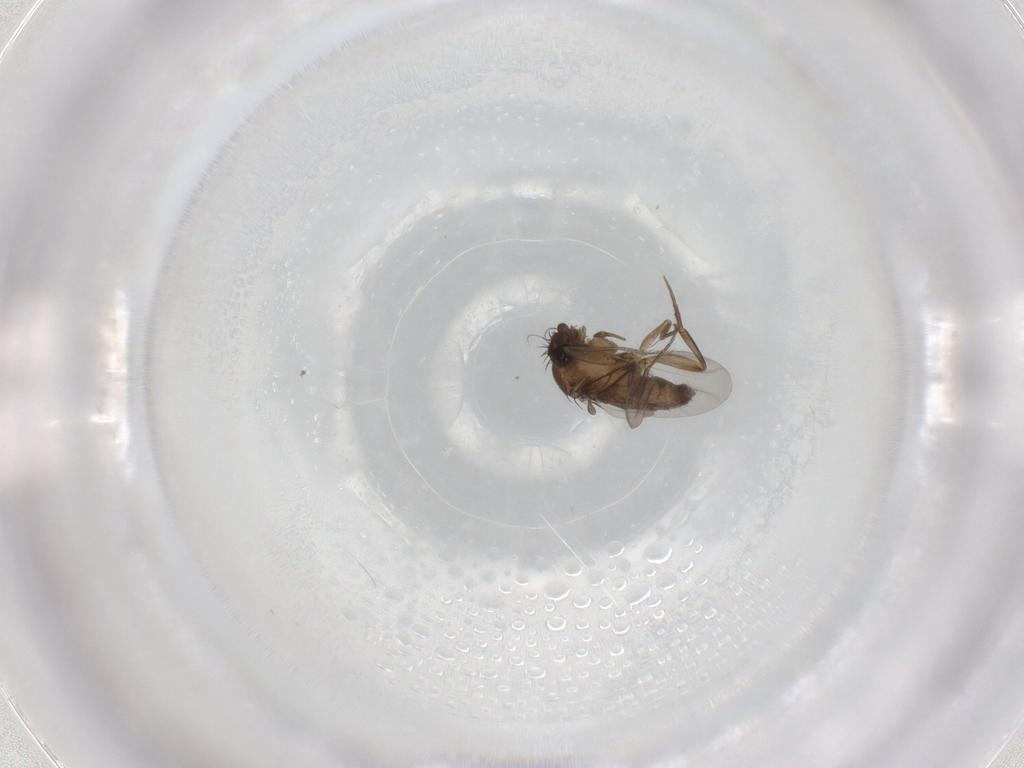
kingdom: Animalia
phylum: Arthropoda
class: Insecta
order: Diptera
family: Phoridae
